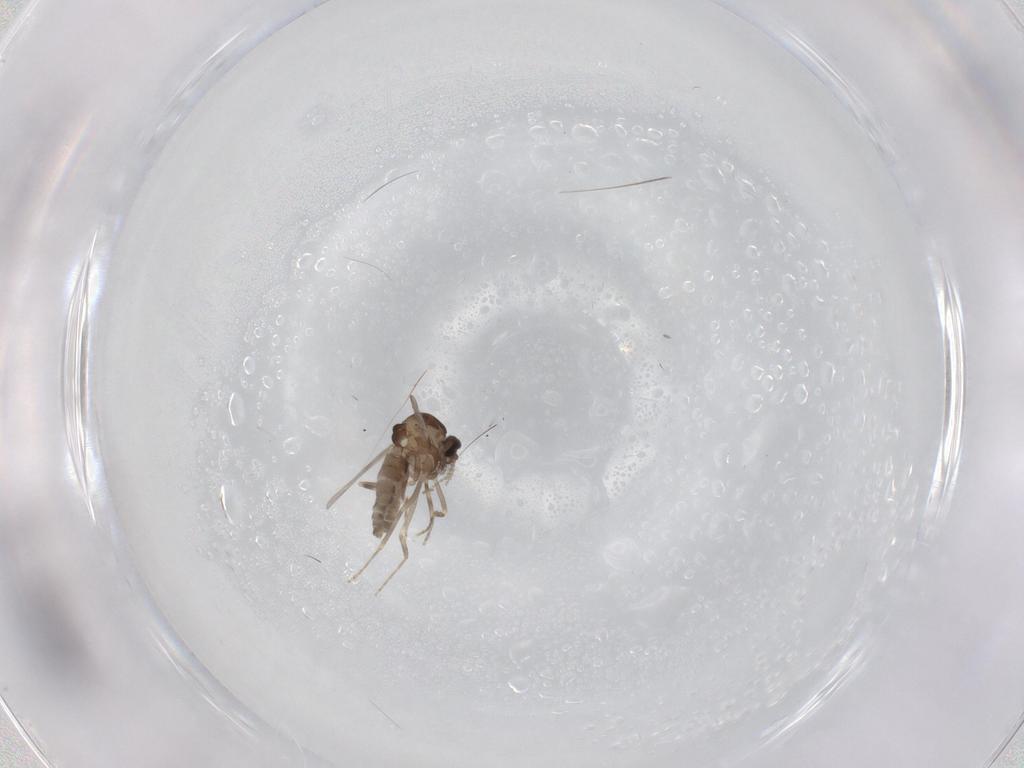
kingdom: Animalia
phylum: Arthropoda
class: Insecta
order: Diptera
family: Ceratopogonidae
